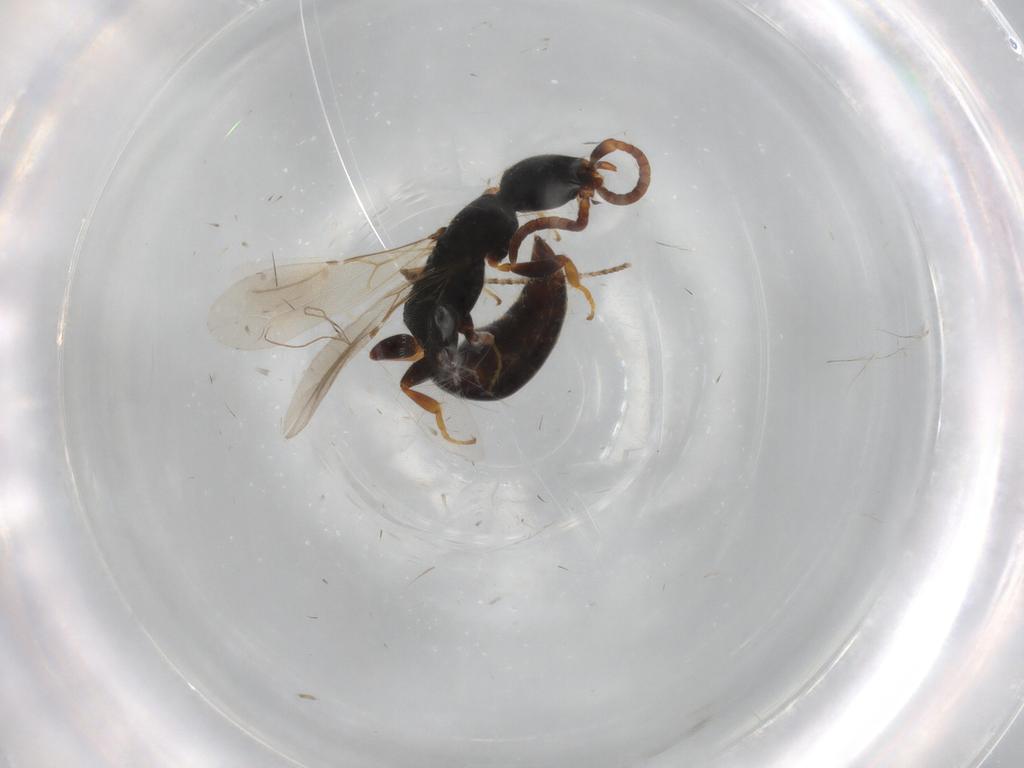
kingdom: Animalia
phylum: Arthropoda
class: Insecta
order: Hymenoptera
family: Bethylidae
